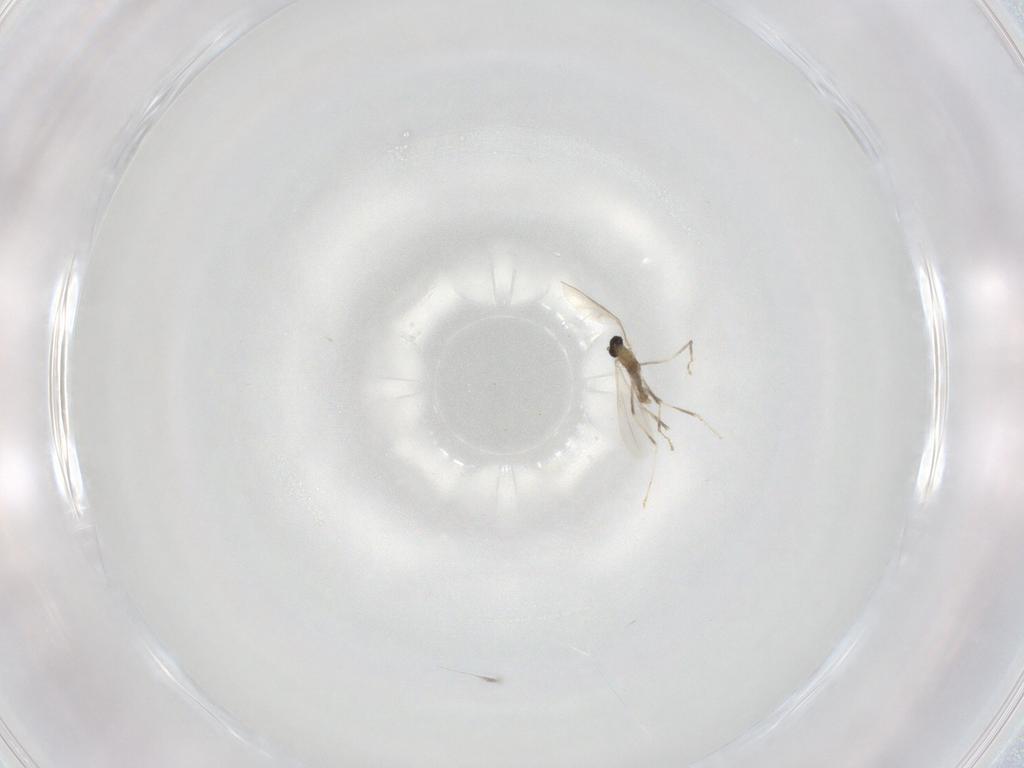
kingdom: Animalia
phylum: Arthropoda
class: Insecta
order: Diptera
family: Cecidomyiidae
